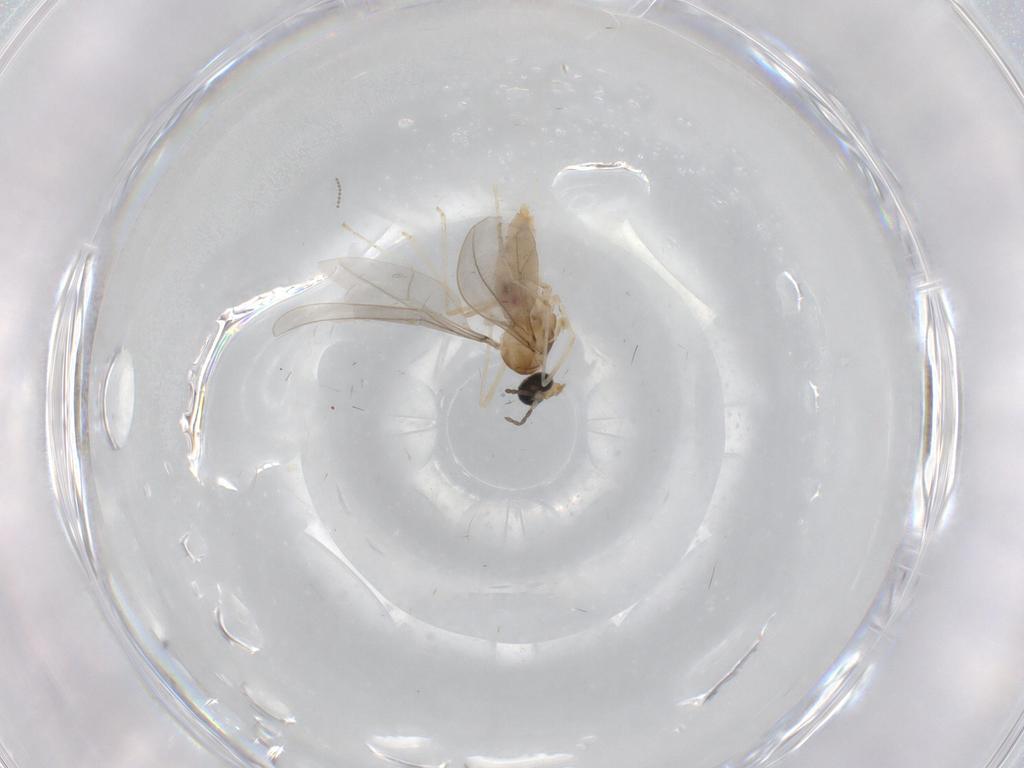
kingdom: Animalia
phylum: Arthropoda
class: Insecta
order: Diptera
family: Cecidomyiidae
